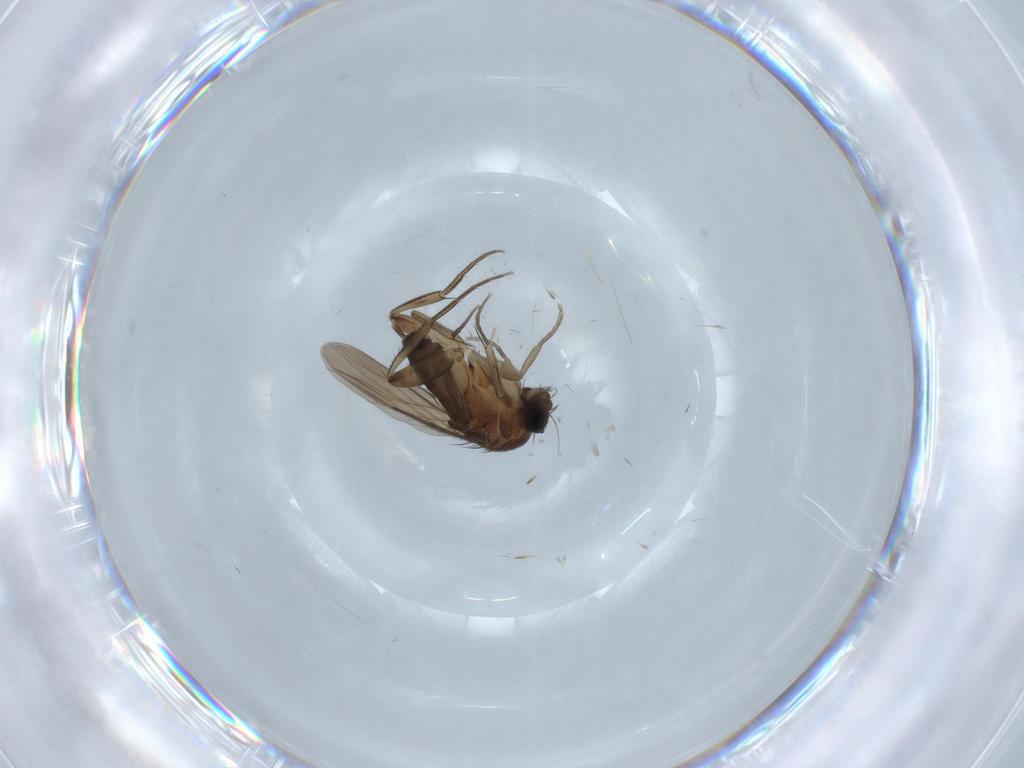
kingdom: Animalia
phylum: Arthropoda
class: Insecta
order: Diptera
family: Phoridae
